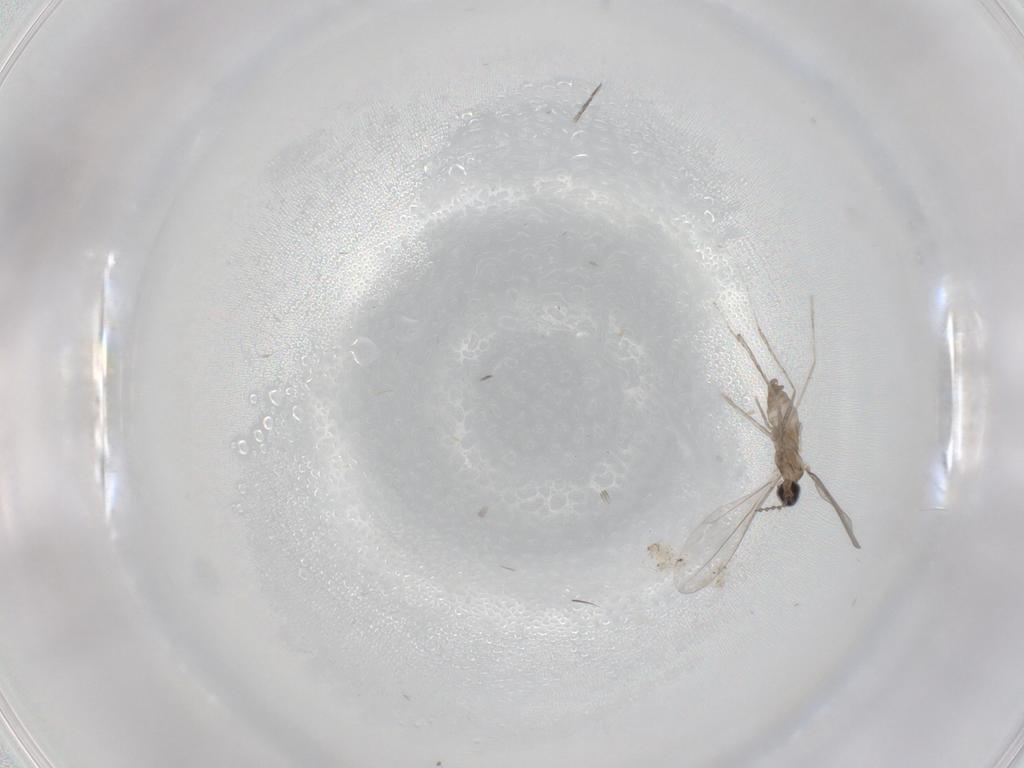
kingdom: Animalia
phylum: Arthropoda
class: Insecta
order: Diptera
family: Cecidomyiidae
